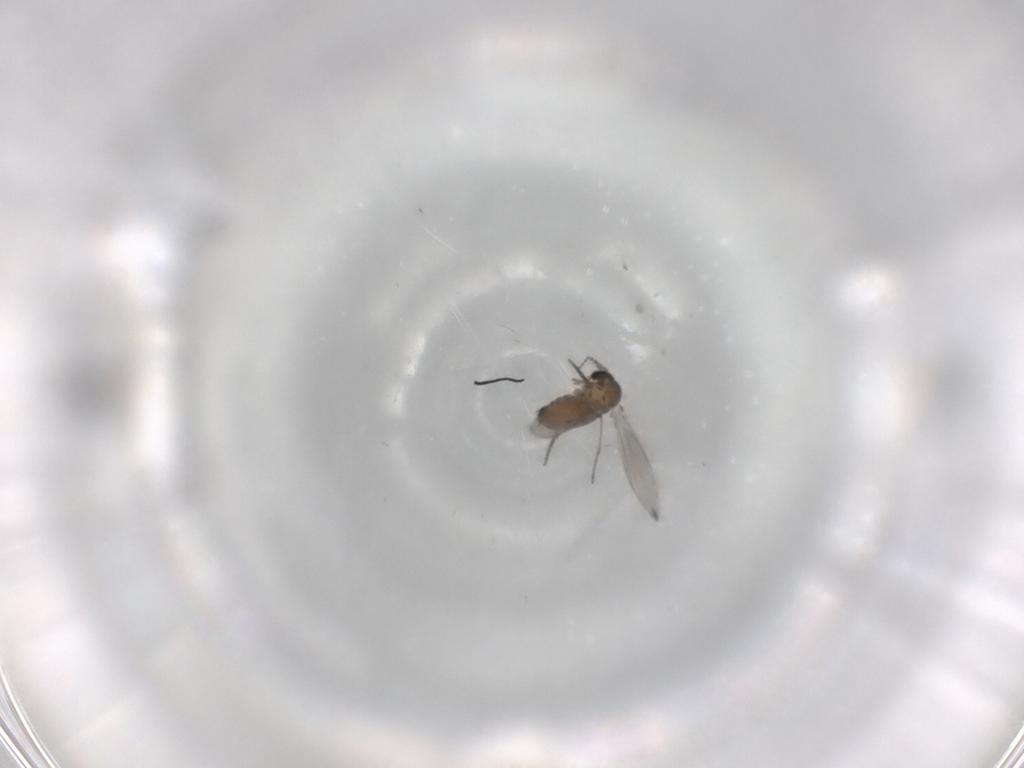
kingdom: Animalia
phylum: Arthropoda
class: Insecta
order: Diptera
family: Psychodidae
